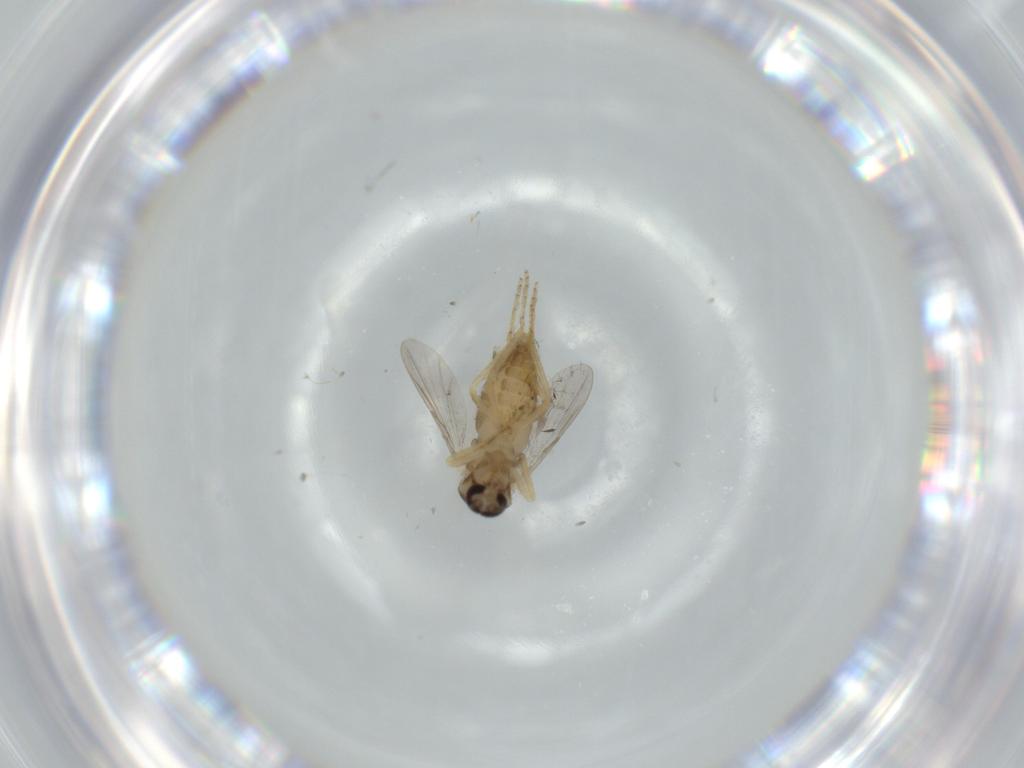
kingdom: Animalia
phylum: Arthropoda
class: Insecta
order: Diptera
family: Ceratopogonidae
